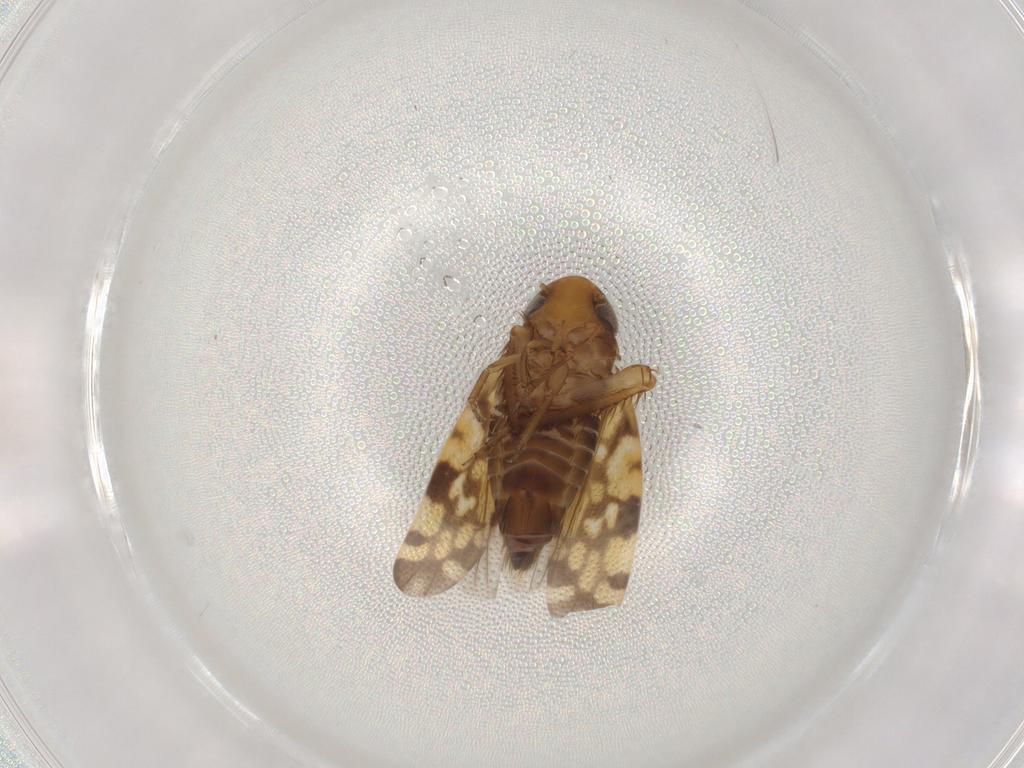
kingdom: Animalia
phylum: Arthropoda
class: Insecta
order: Hemiptera
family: Cicadellidae
